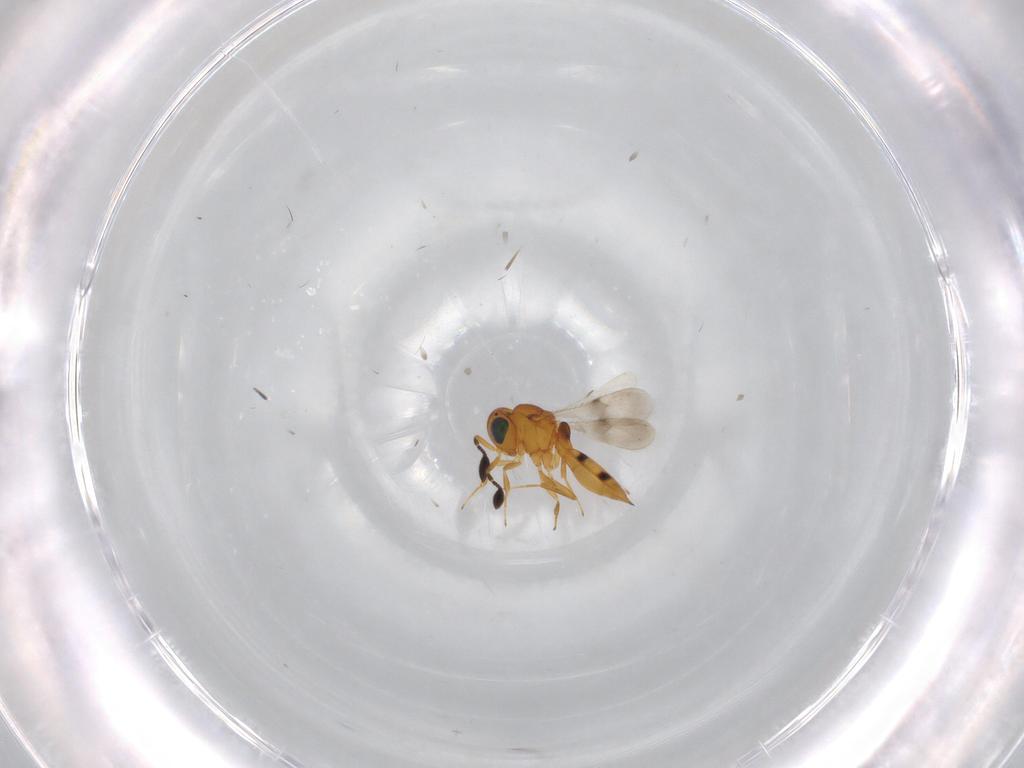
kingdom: Animalia
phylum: Arthropoda
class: Insecta
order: Hymenoptera
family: Scelionidae
